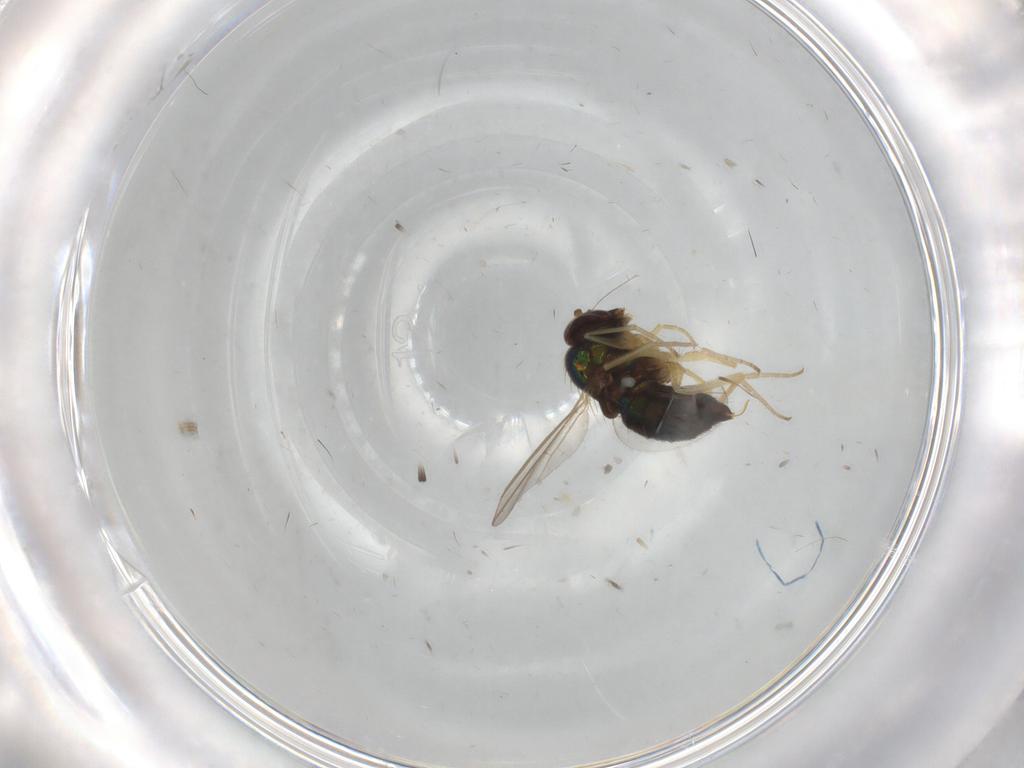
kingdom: Animalia
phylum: Arthropoda
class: Insecta
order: Diptera
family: Dolichopodidae
